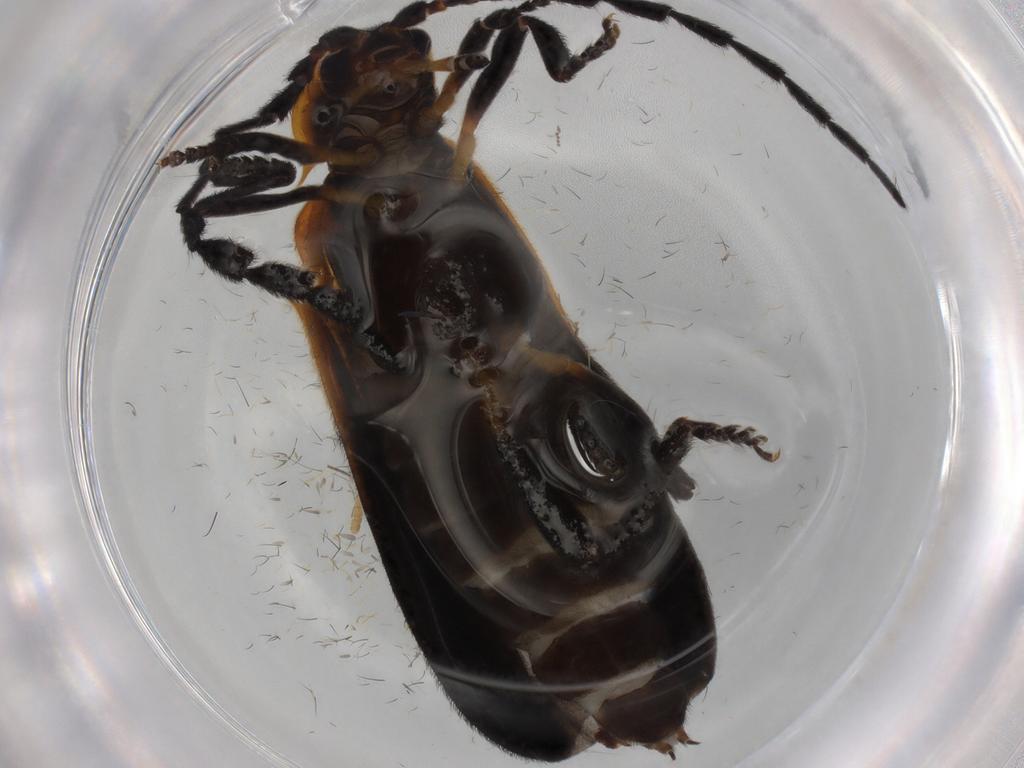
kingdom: Animalia
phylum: Arthropoda
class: Insecta
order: Coleoptera
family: Lycidae
